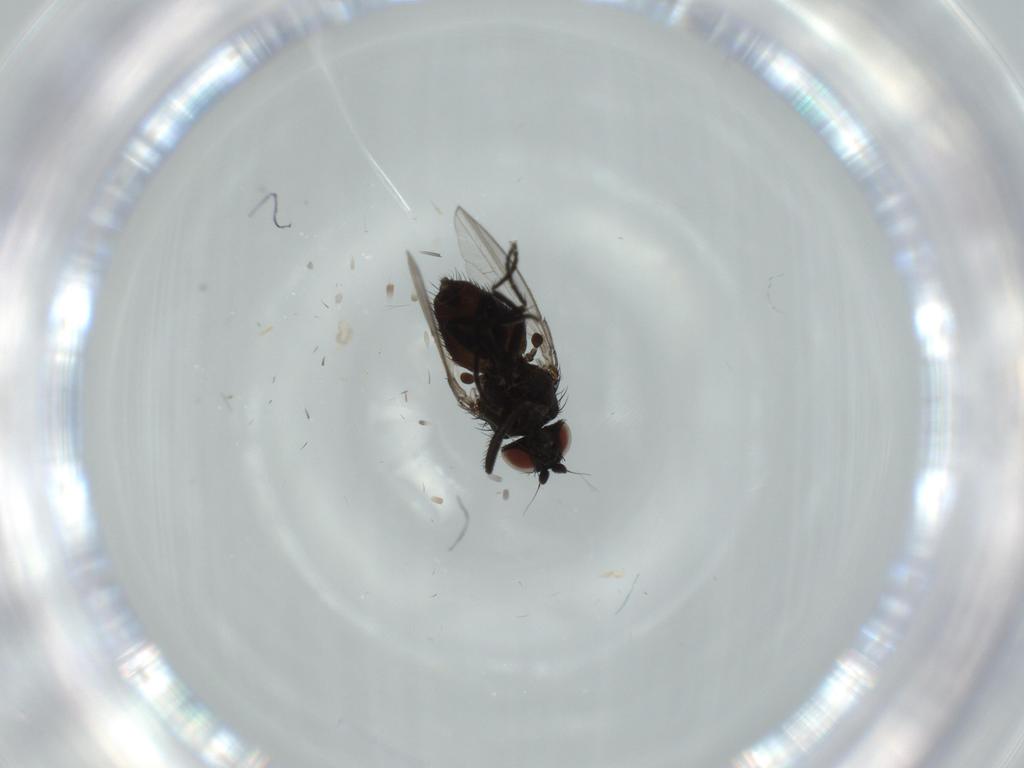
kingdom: Animalia
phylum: Arthropoda
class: Insecta
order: Diptera
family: Milichiidae
